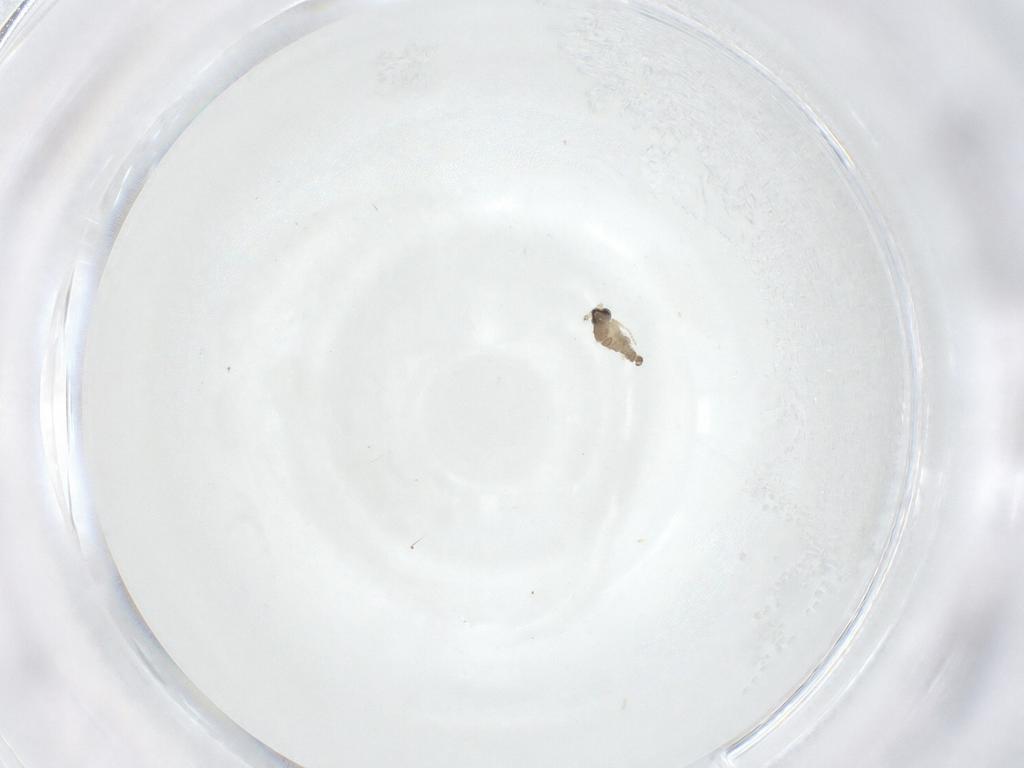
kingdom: Animalia
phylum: Arthropoda
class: Insecta
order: Diptera
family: Cecidomyiidae
